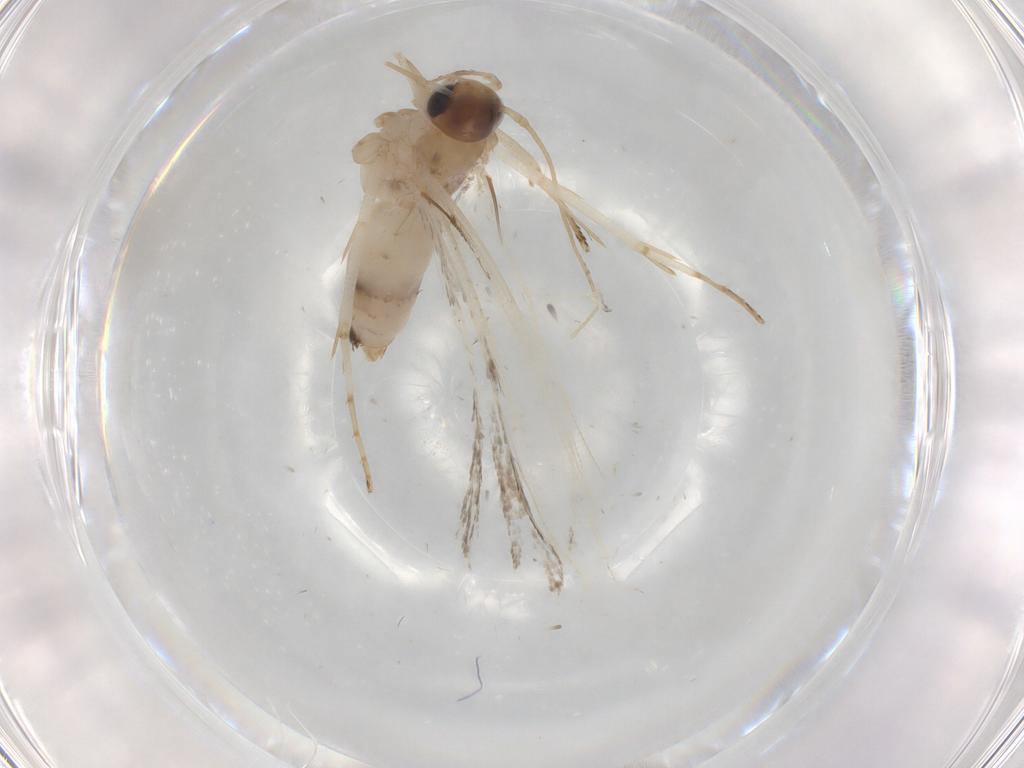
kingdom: Animalia
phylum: Arthropoda
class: Insecta
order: Lepidoptera
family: Gelechiidae
